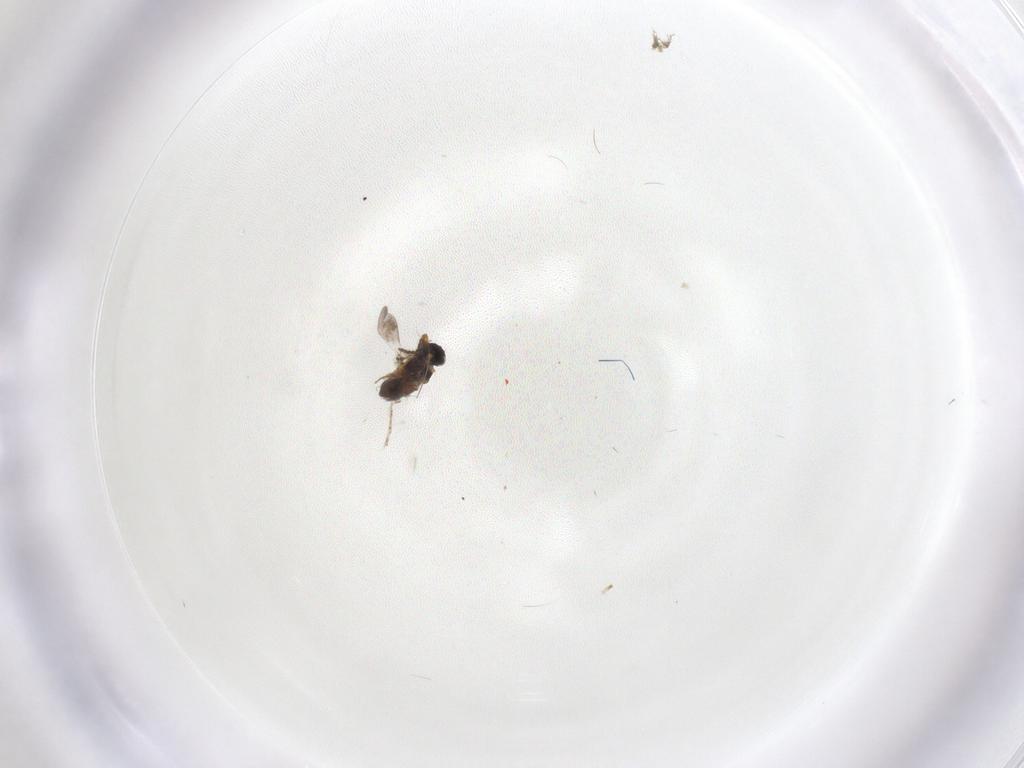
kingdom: Animalia
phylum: Arthropoda
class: Insecta
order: Hymenoptera
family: Platygastridae
